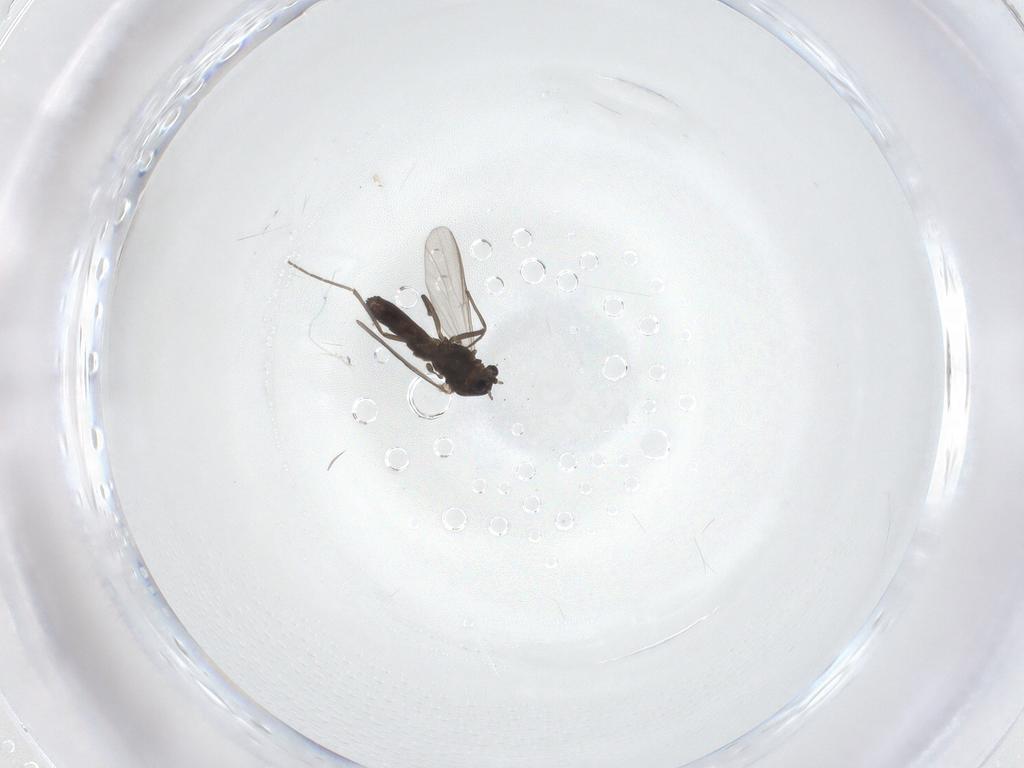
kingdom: Animalia
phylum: Arthropoda
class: Insecta
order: Diptera
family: Chironomidae
